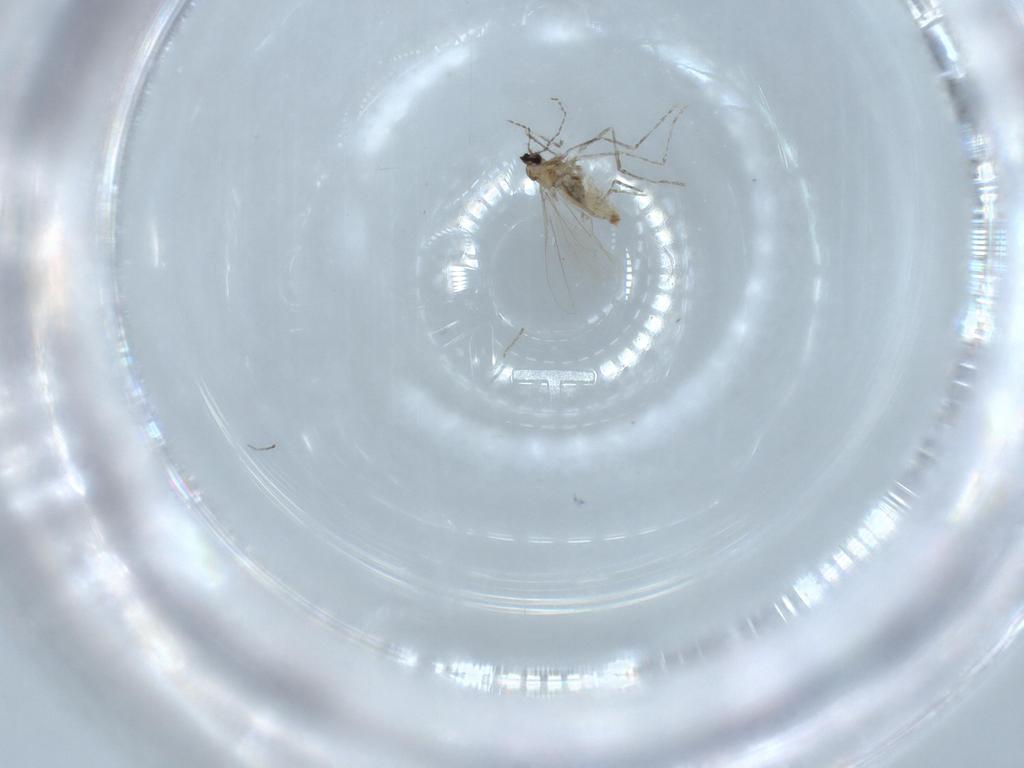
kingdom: Animalia
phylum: Arthropoda
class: Insecta
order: Diptera
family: Cecidomyiidae
